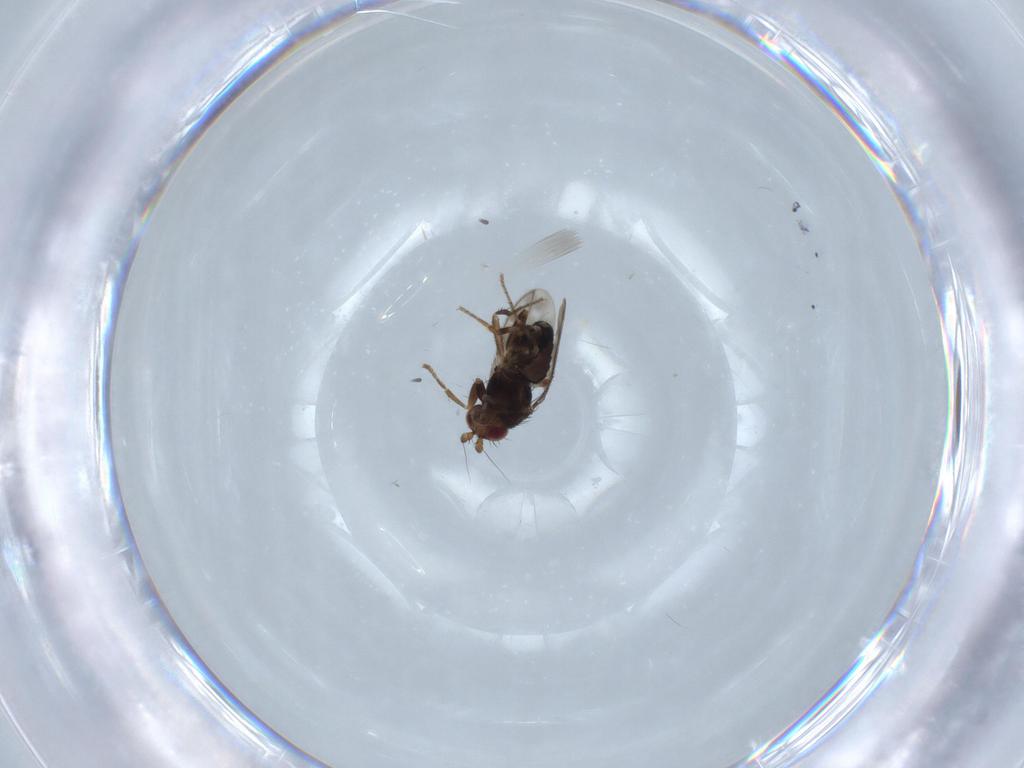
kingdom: Animalia
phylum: Arthropoda
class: Insecta
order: Diptera
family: Sphaeroceridae
